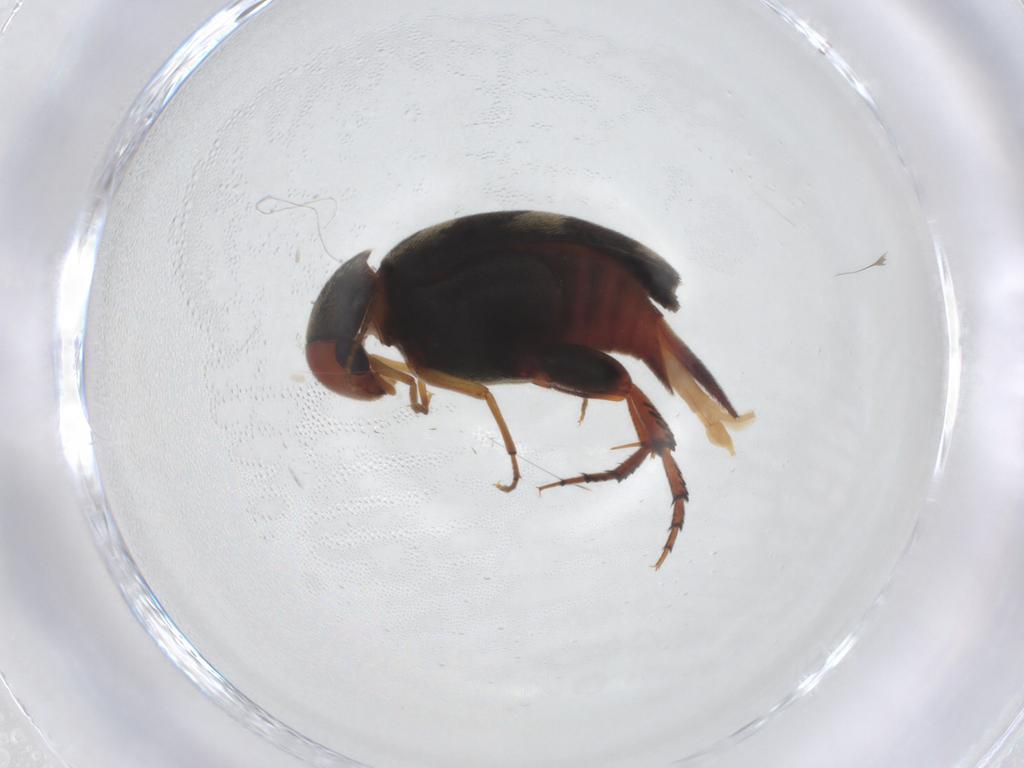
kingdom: Animalia
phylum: Arthropoda
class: Insecta
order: Coleoptera
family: Mordellidae
